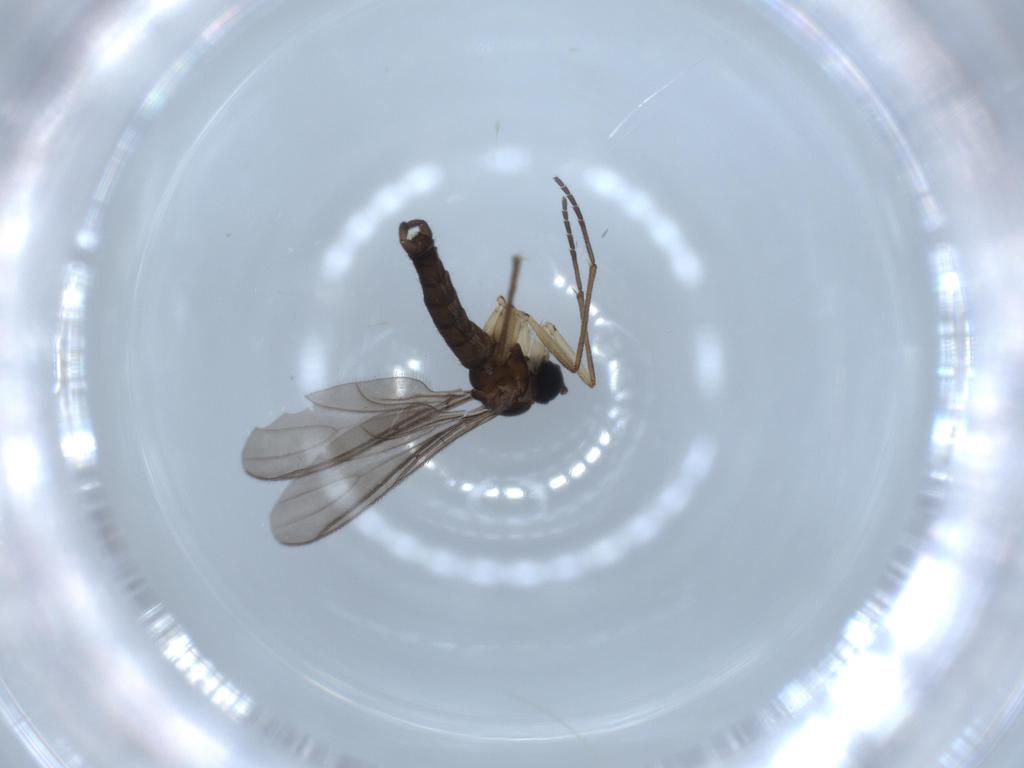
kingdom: Animalia
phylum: Arthropoda
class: Insecta
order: Diptera
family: Sciaridae
